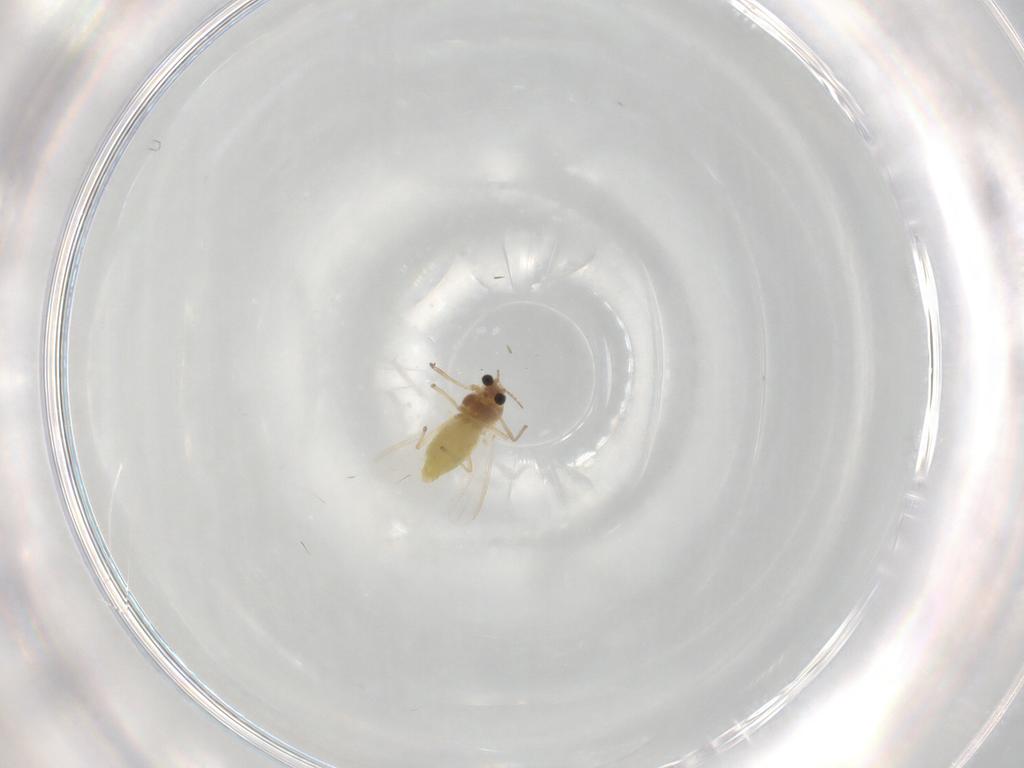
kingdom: Animalia
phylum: Arthropoda
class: Insecta
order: Diptera
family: Chironomidae
